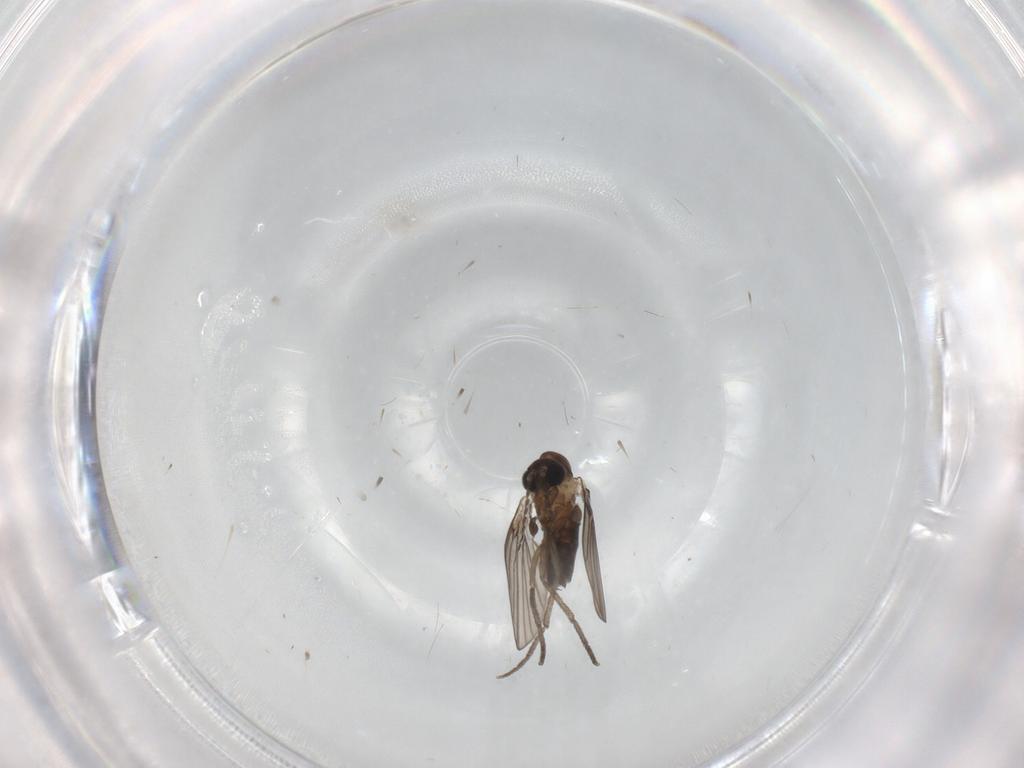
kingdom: Animalia
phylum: Arthropoda
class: Insecta
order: Diptera
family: Psychodidae
